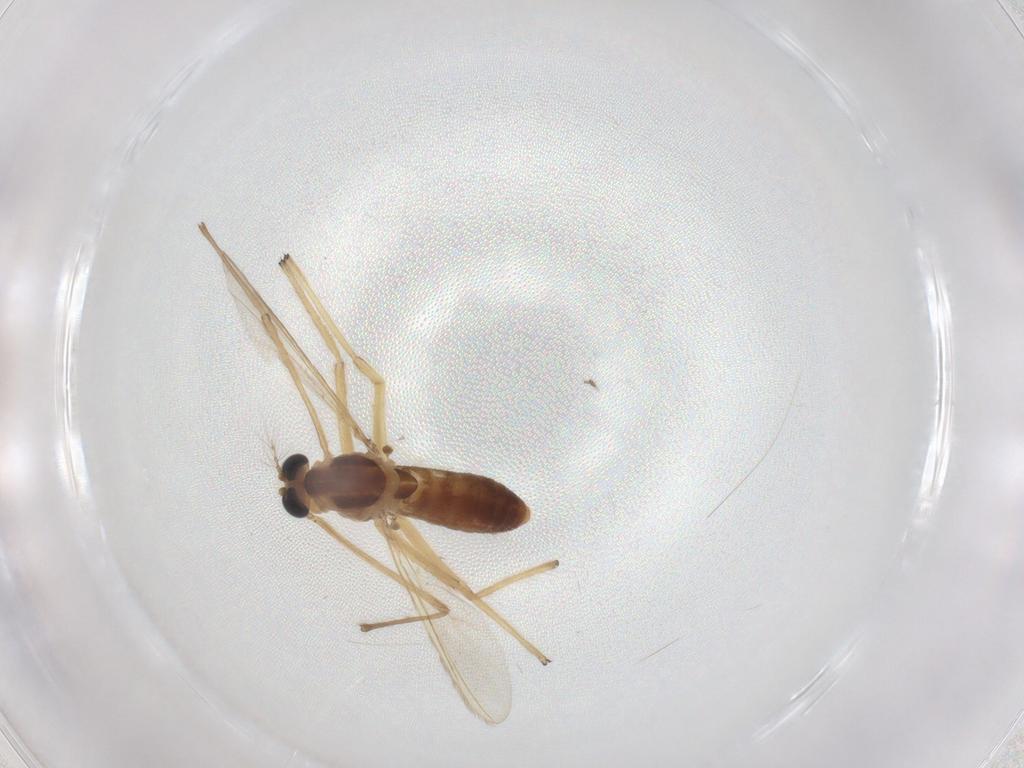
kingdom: Animalia
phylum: Arthropoda
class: Insecta
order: Diptera
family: Chironomidae
